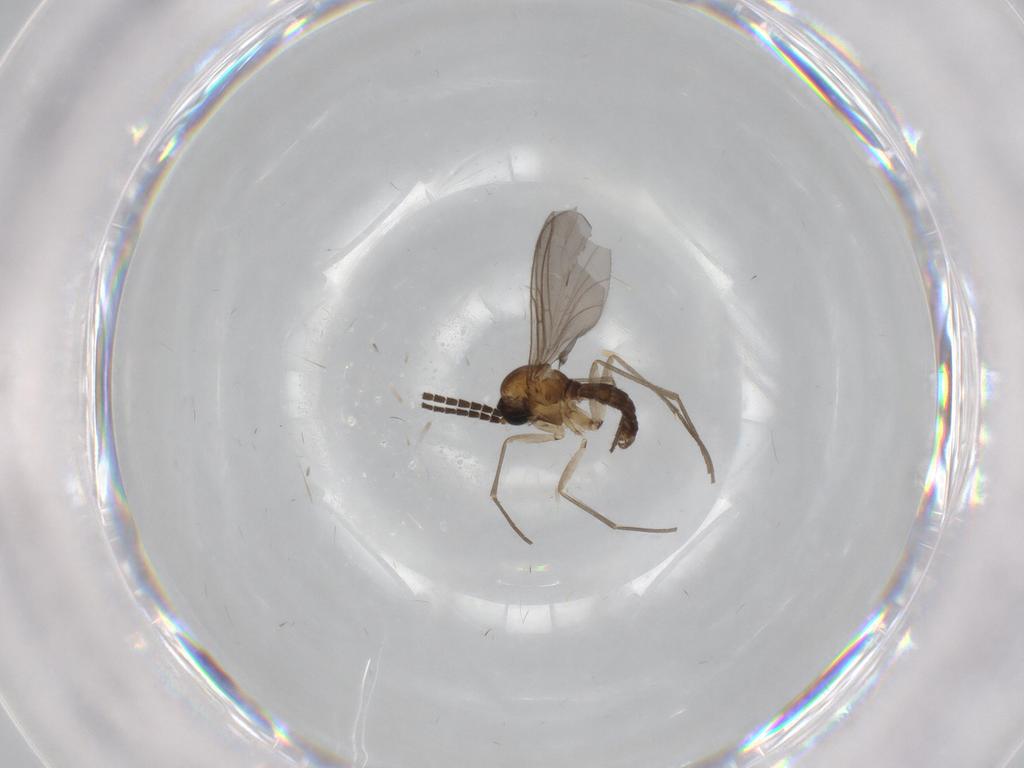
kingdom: Animalia
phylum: Arthropoda
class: Insecta
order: Diptera
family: Sciaridae
